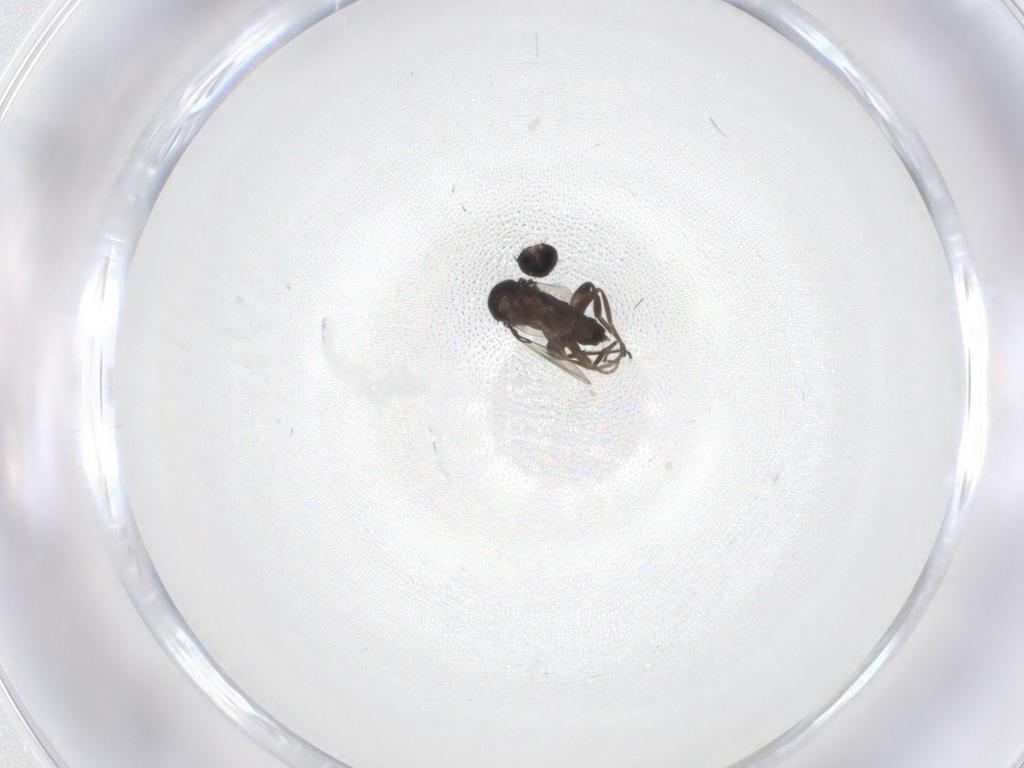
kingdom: Animalia
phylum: Arthropoda
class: Insecta
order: Diptera
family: Phoridae
